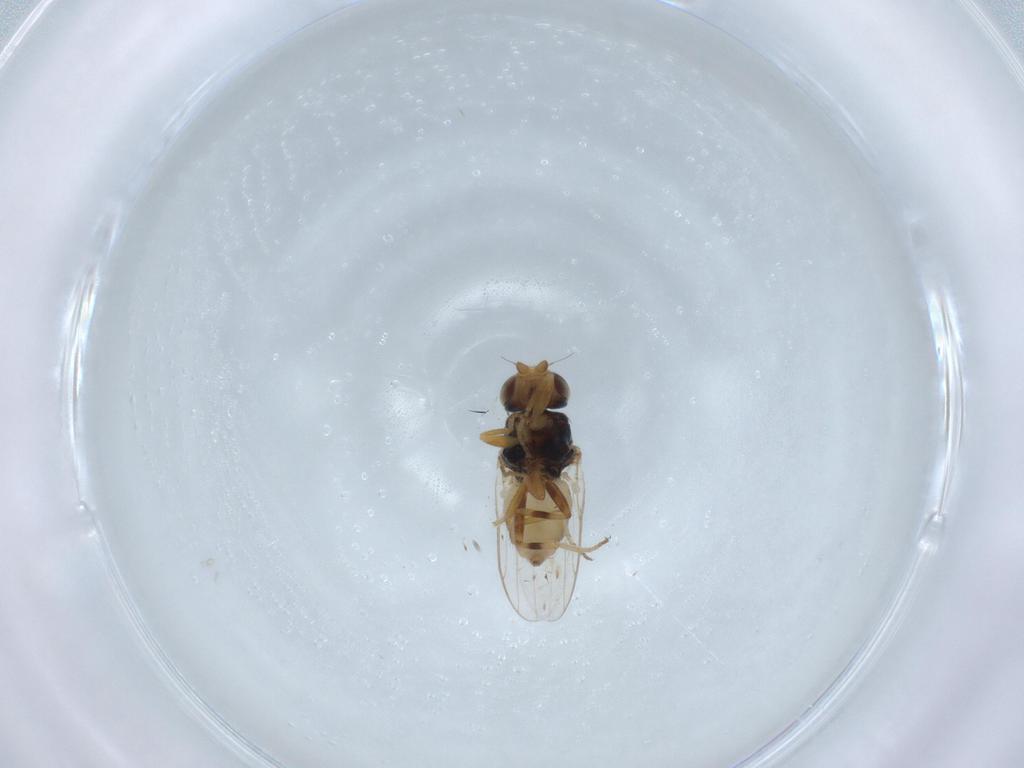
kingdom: Animalia
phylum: Arthropoda
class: Insecta
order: Diptera
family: Chloropidae
